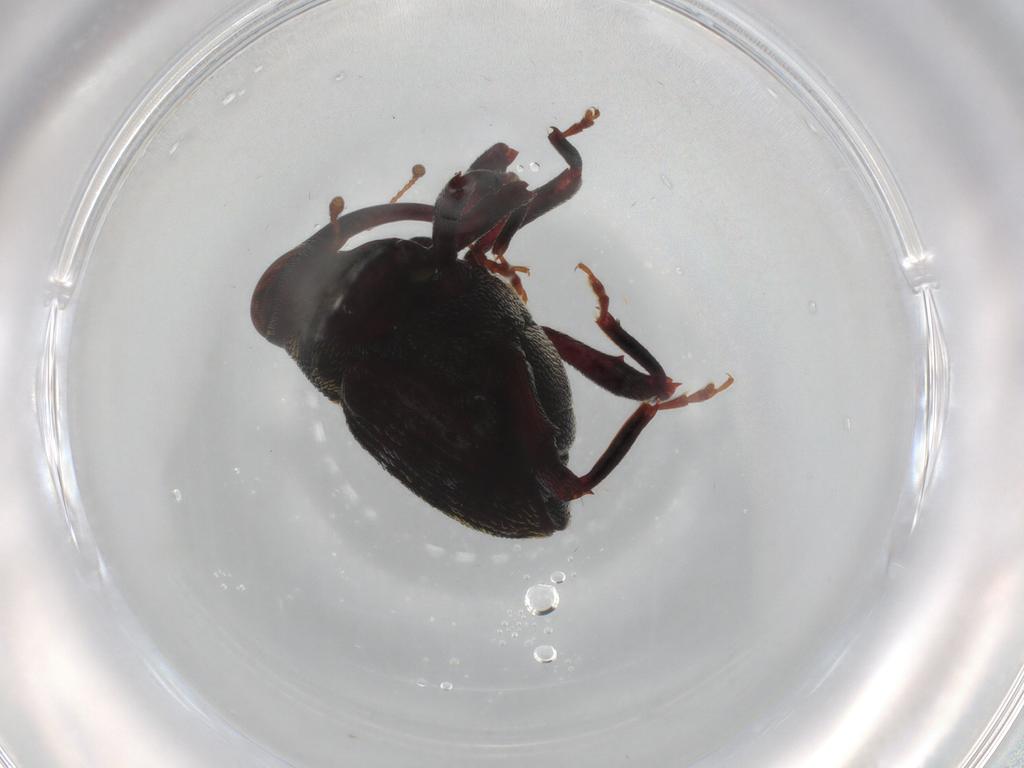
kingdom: Animalia
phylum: Arthropoda
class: Insecta
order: Coleoptera
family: Curculionidae
